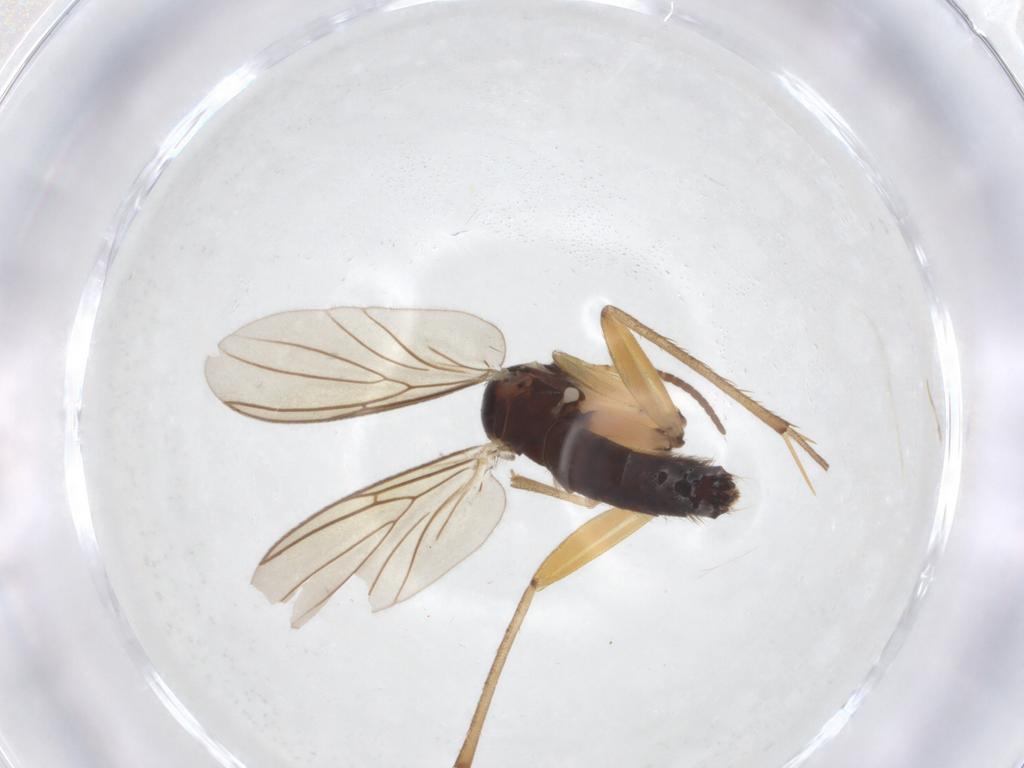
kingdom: Animalia
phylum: Arthropoda
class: Insecta
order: Diptera
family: Mycetophilidae
